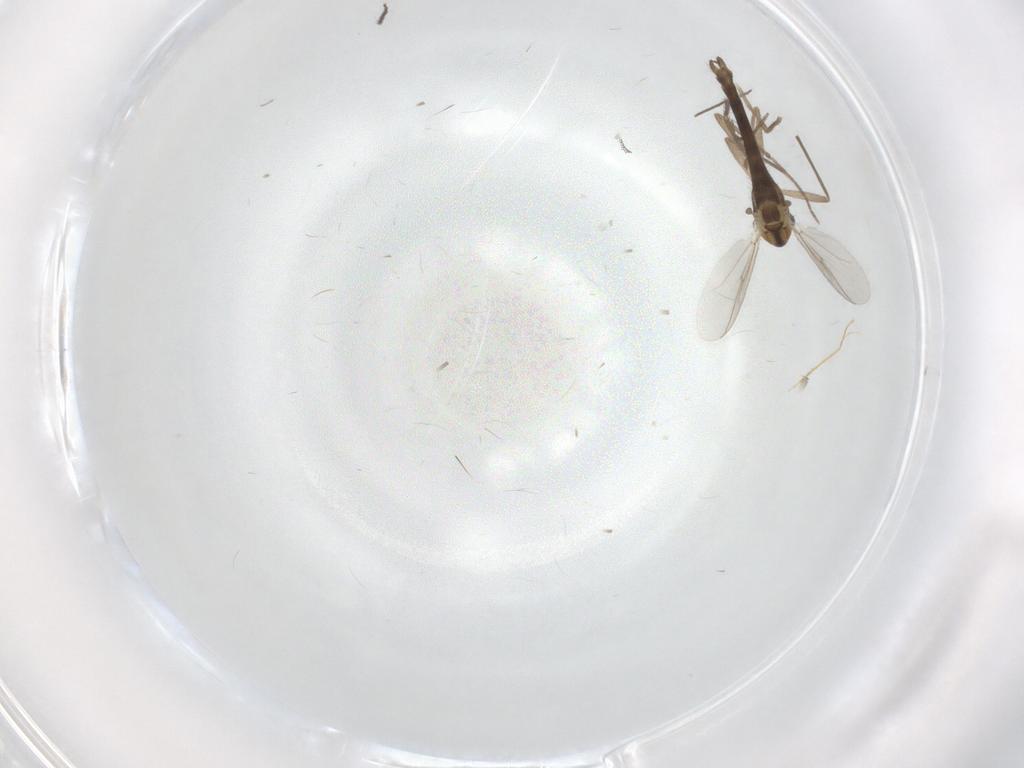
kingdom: Animalia
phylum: Arthropoda
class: Insecta
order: Diptera
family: Chironomidae
